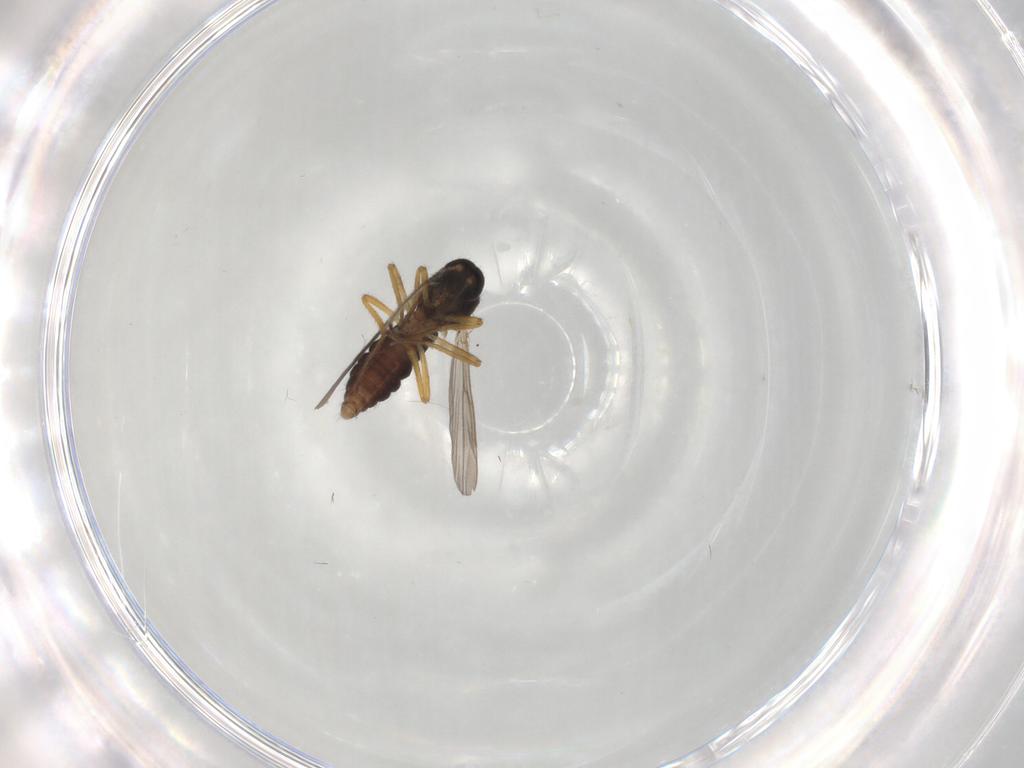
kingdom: Animalia
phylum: Arthropoda
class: Insecta
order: Diptera
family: Ceratopogonidae
